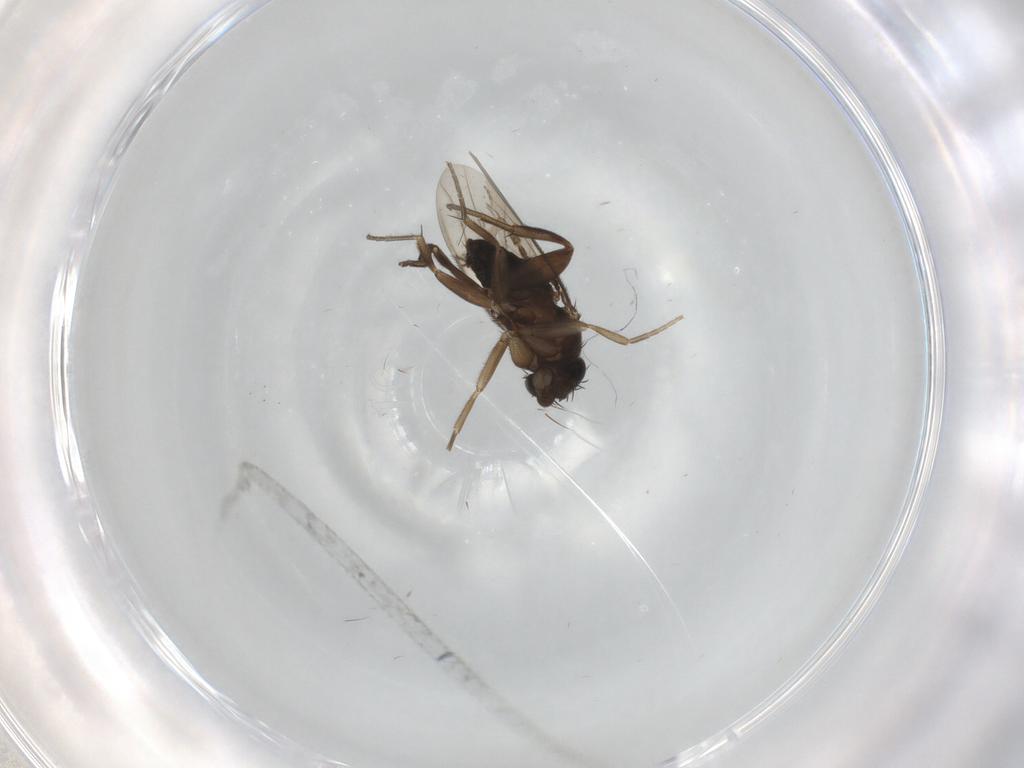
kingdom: Animalia
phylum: Arthropoda
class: Insecta
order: Diptera
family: Phoridae
